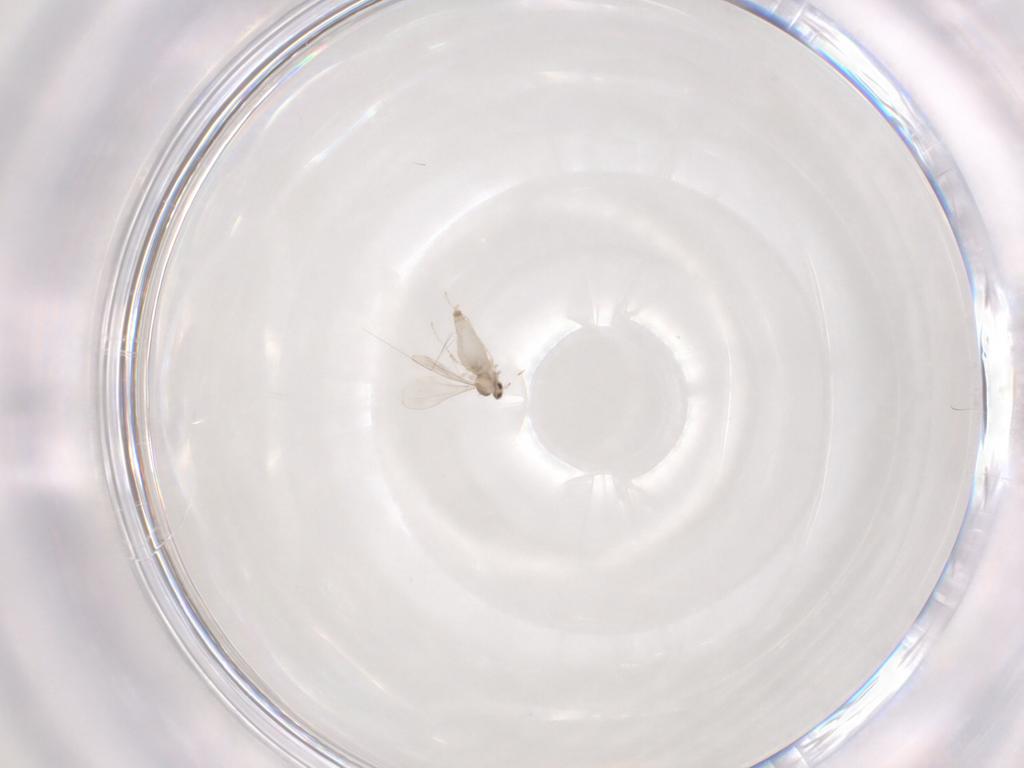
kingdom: Animalia
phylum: Arthropoda
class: Insecta
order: Diptera
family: Cecidomyiidae
